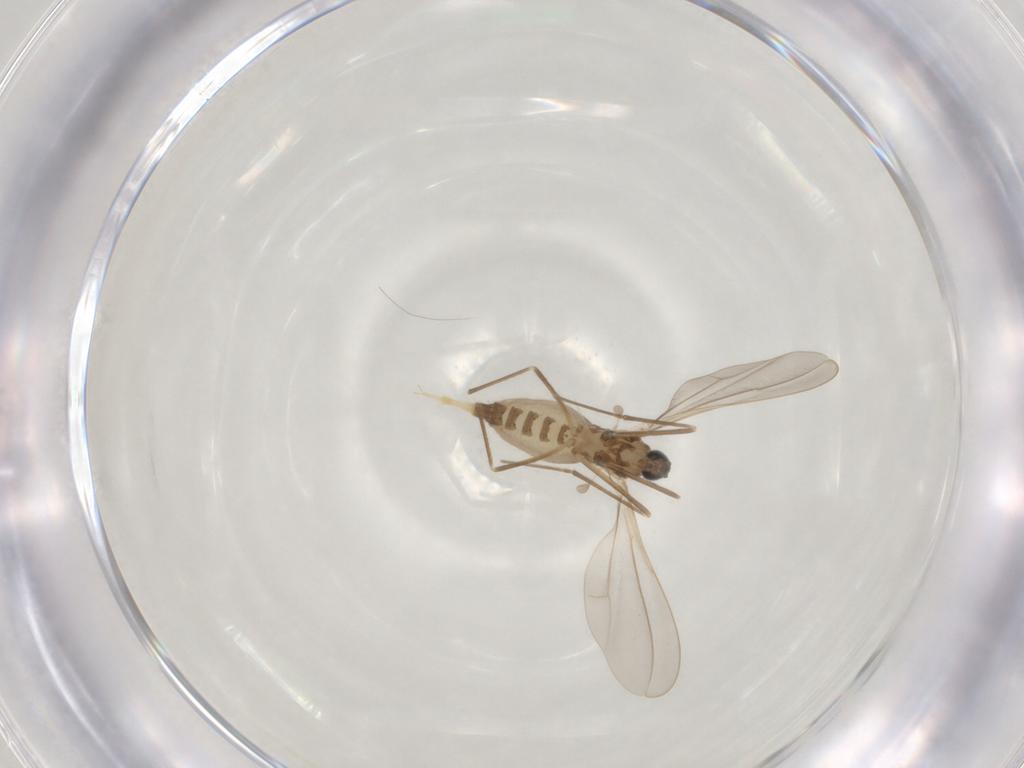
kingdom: Animalia
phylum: Arthropoda
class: Insecta
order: Diptera
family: Cecidomyiidae
